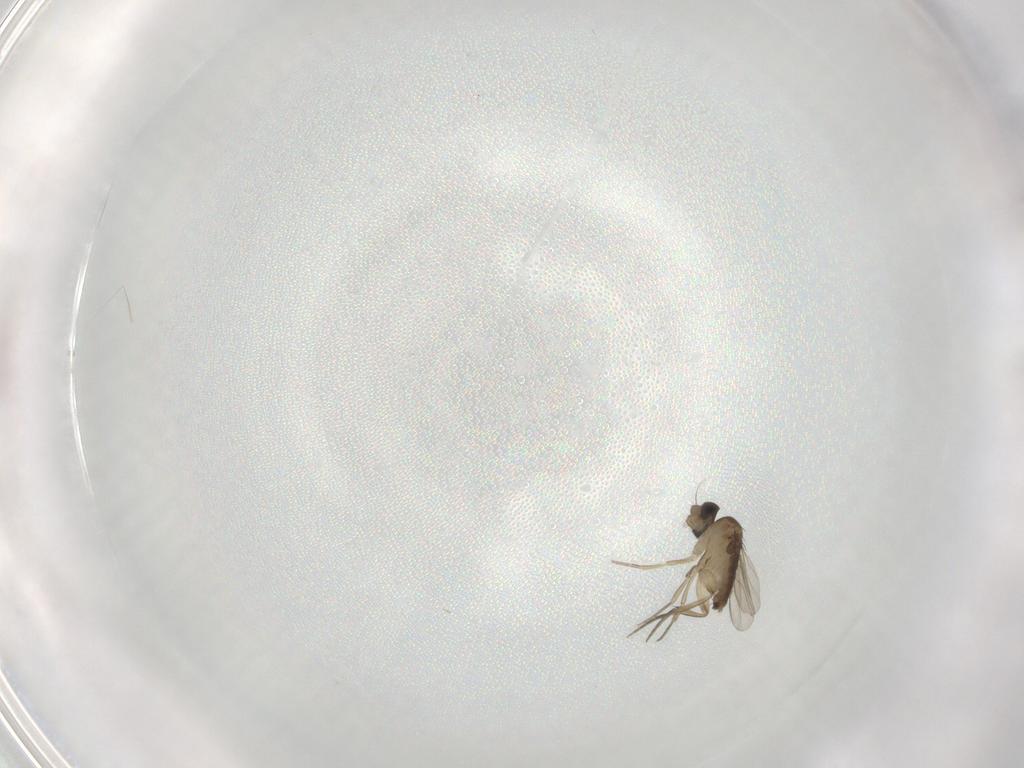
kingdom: Animalia
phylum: Arthropoda
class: Insecta
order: Diptera
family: Phoridae
